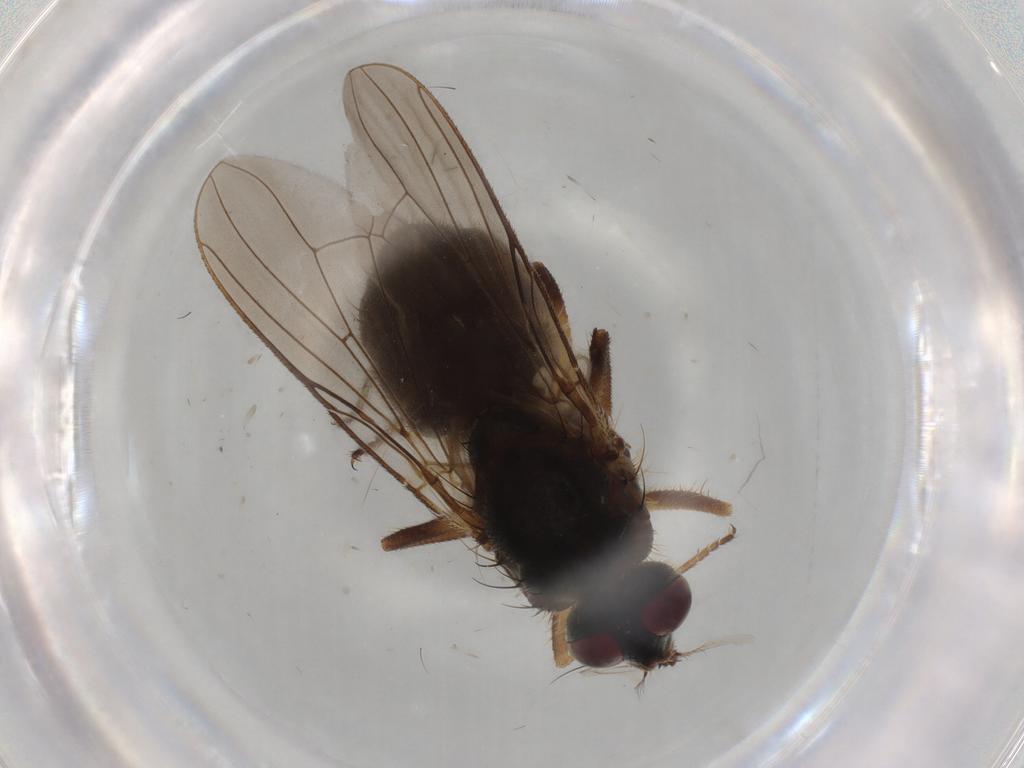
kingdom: Animalia
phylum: Arthropoda
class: Insecta
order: Diptera
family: Lauxaniidae
